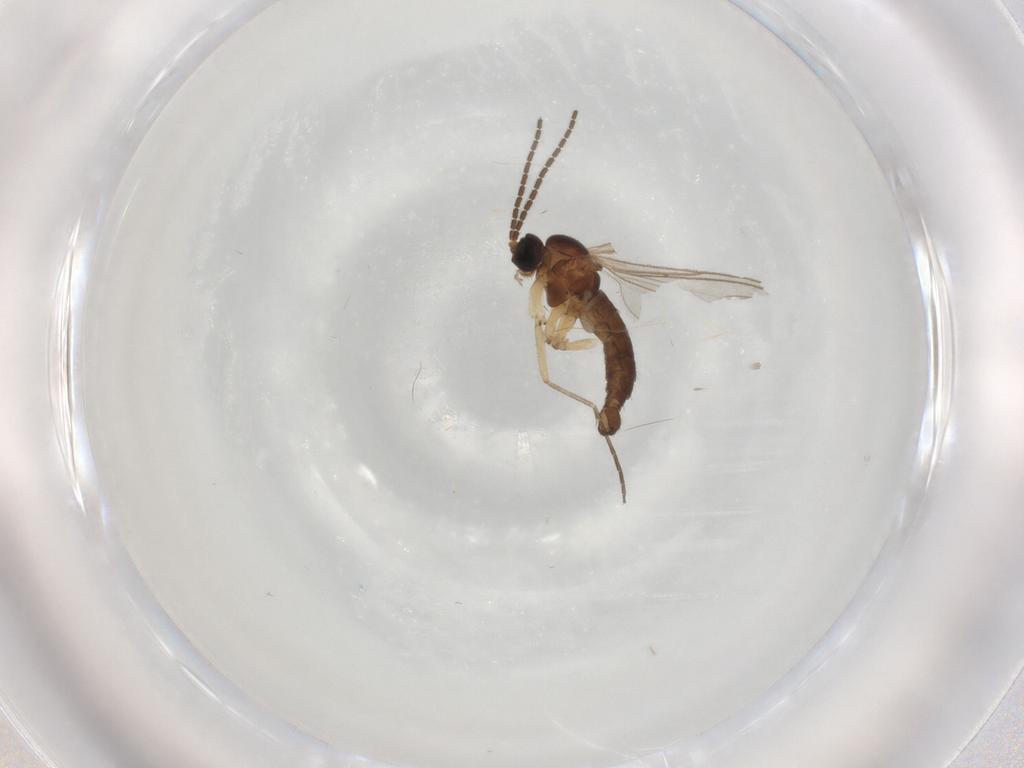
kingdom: Animalia
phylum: Arthropoda
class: Insecta
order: Diptera
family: Sciaridae
